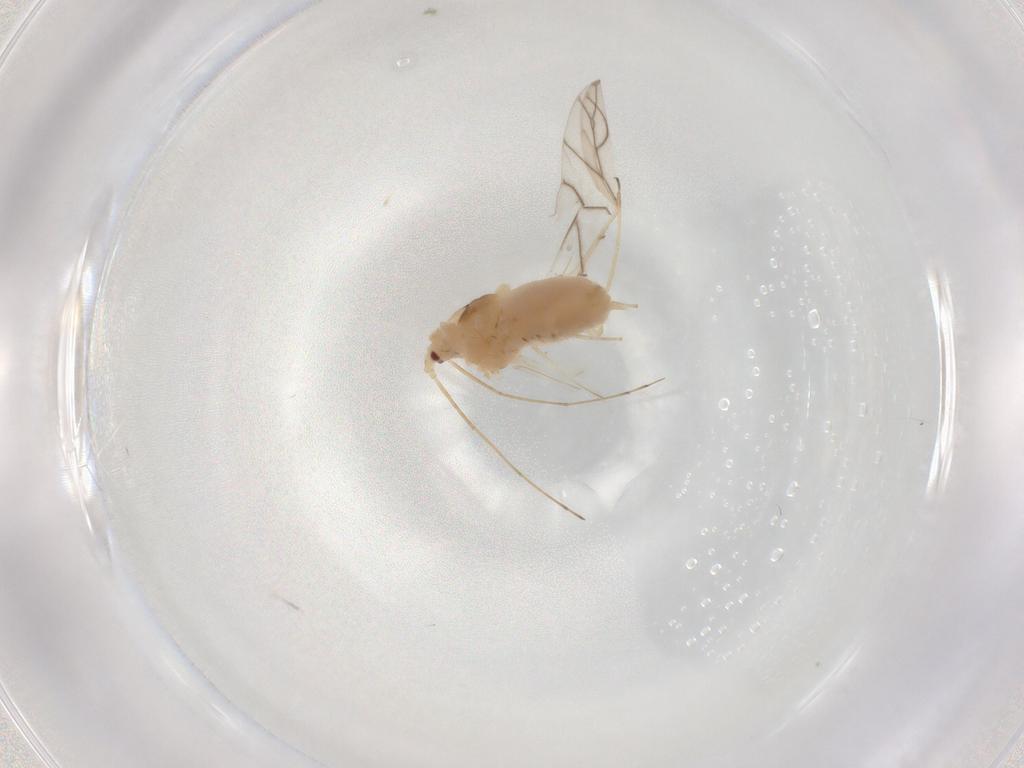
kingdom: Animalia
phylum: Arthropoda
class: Insecta
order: Hemiptera
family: Aphididae
